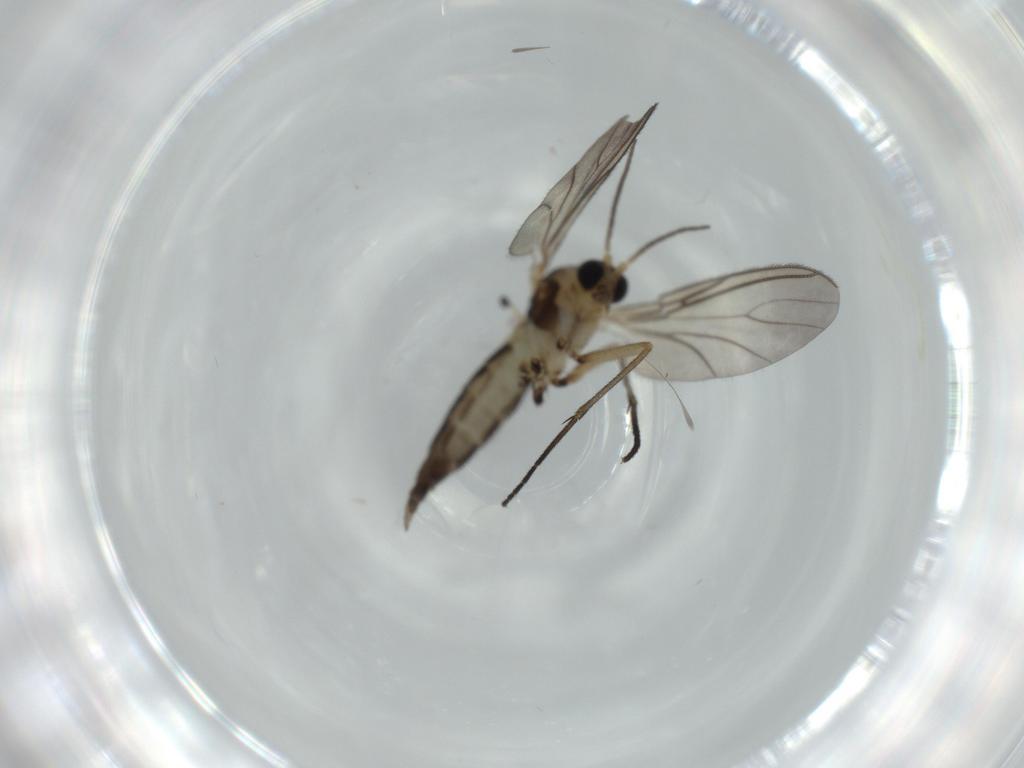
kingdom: Animalia
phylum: Arthropoda
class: Insecta
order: Diptera
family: Sciaridae
